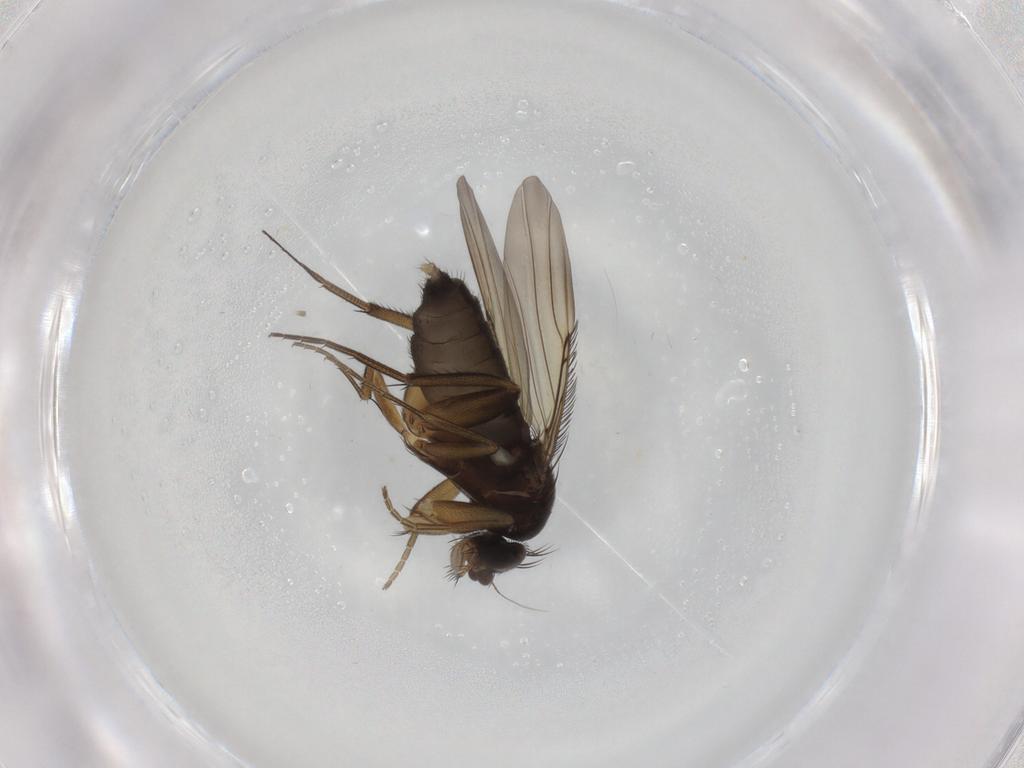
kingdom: Animalia
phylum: Arthropoda
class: Insecta
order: Diptera
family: Phoridae
